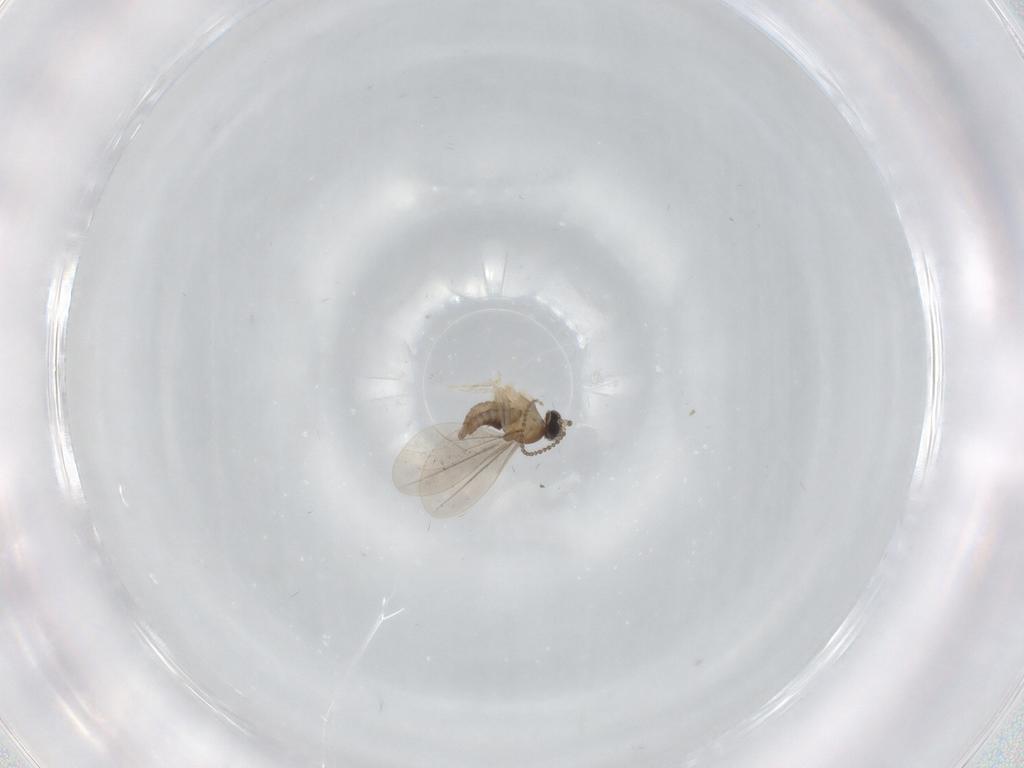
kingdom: Animalia
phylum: Arthropoda
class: Insecta
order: Diptera
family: Cecidomyiidae
